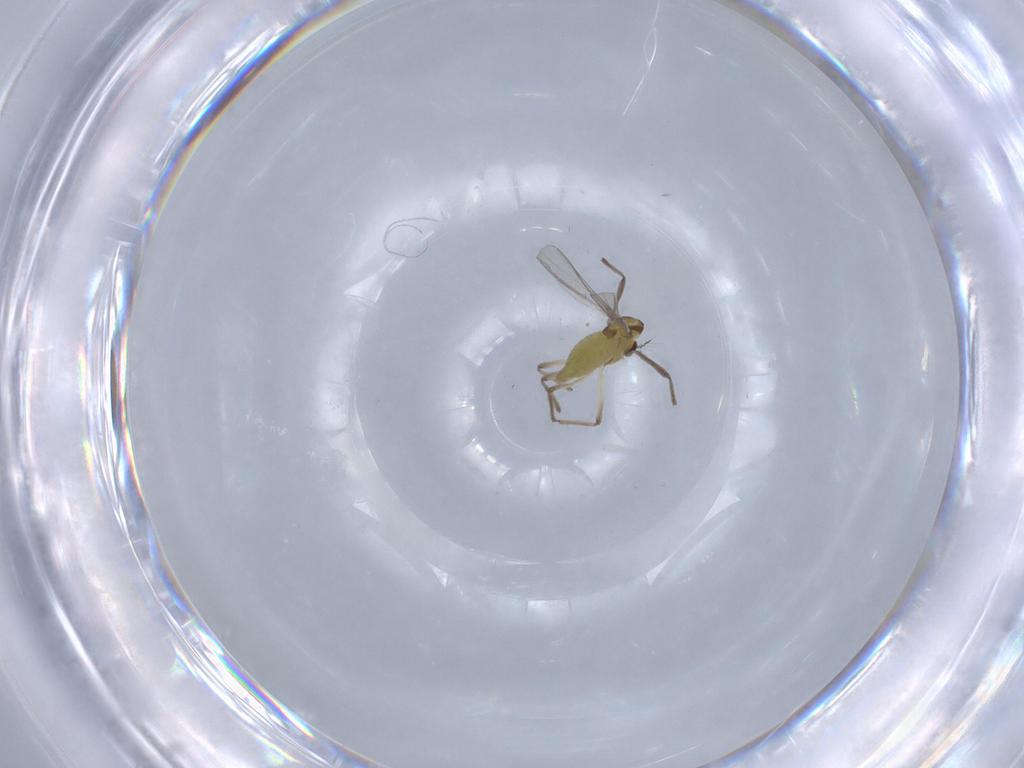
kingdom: Animalia
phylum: Arthropoda
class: Insecta
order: Diptera
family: Chironomidae
